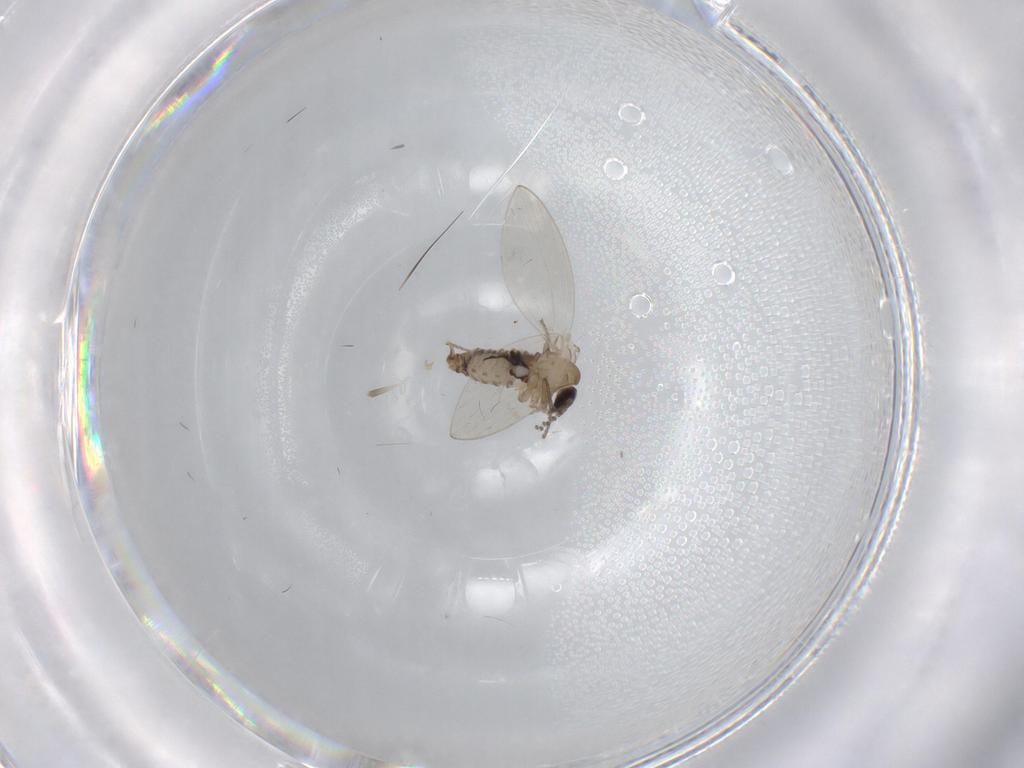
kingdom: Animalia
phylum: Arthropoda
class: Insecta
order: Diptera
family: Psychodidae
